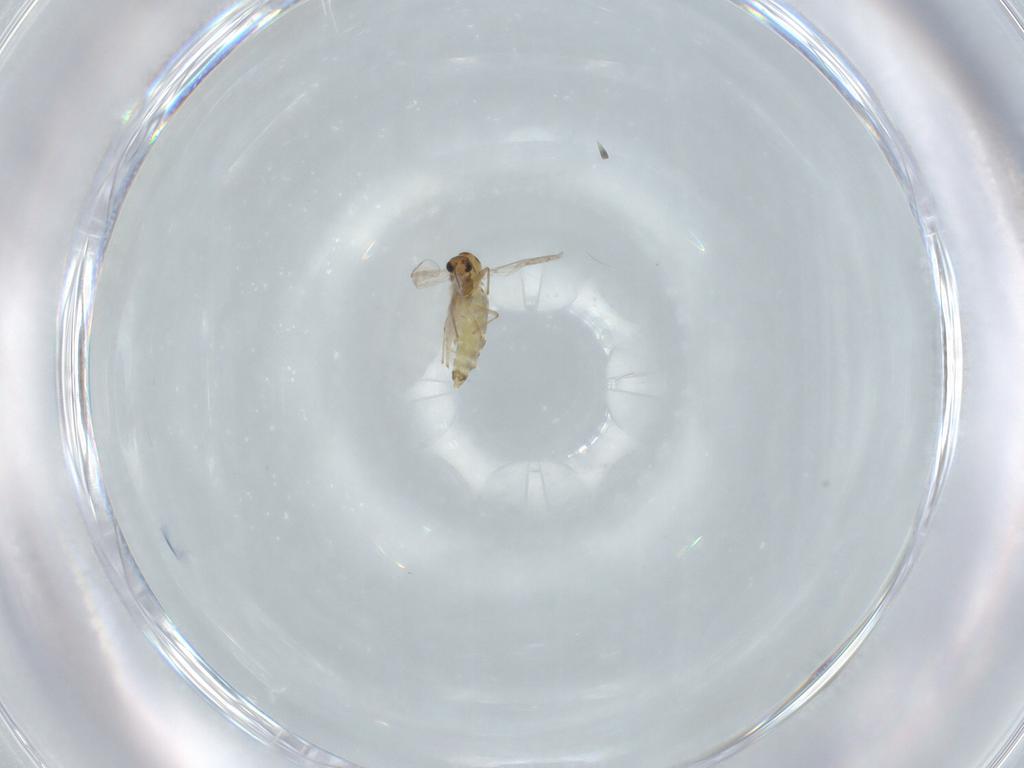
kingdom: Animalia
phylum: Arthropoda
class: Insecta
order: Diptera
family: Chironomidae
